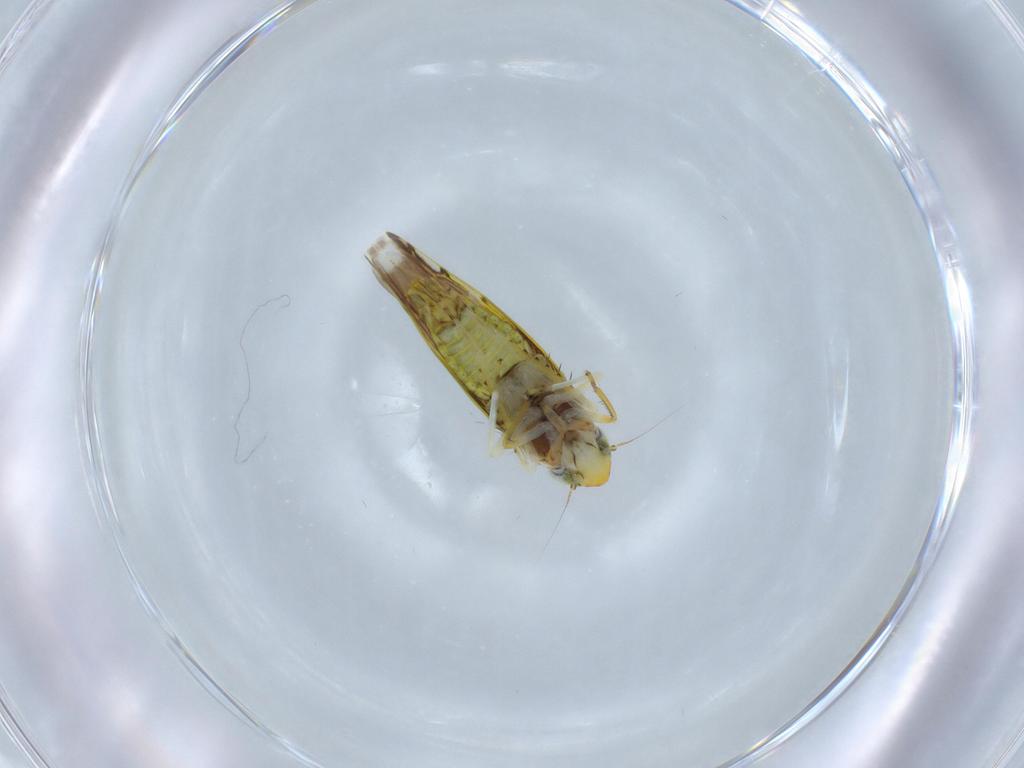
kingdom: Animalia
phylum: Arthropoda
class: Insecta
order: Hemiptera
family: Cicadellidae
